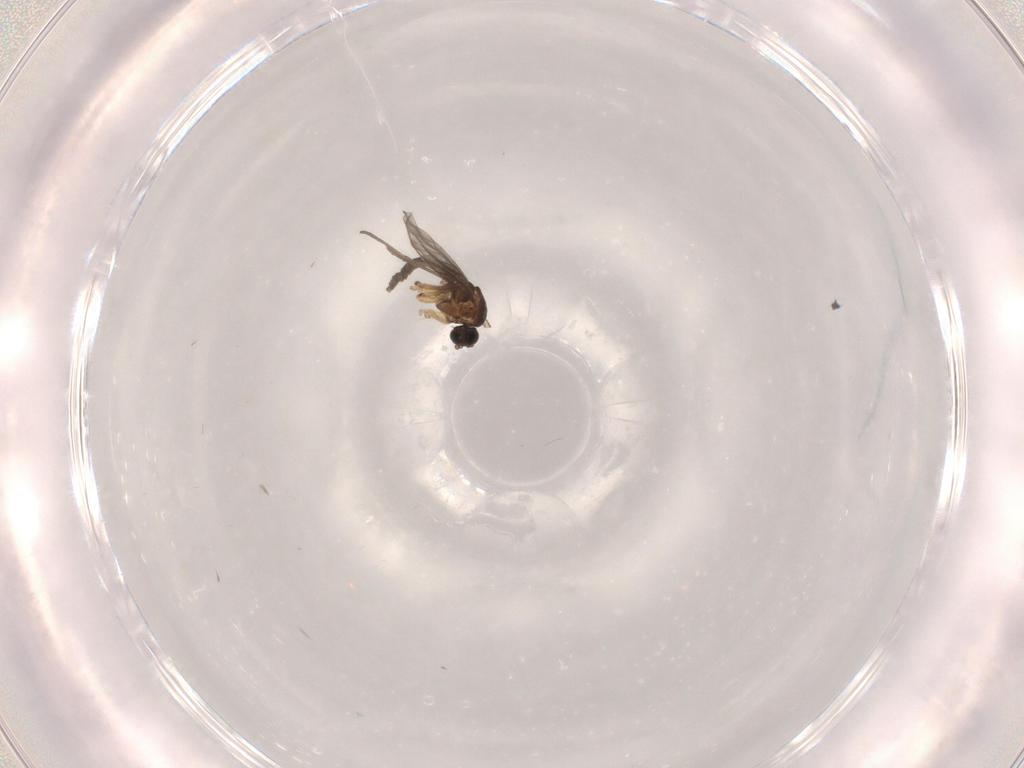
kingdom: Animalia
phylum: Arthropoda
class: Insecta
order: Diptera
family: Sciaridae
